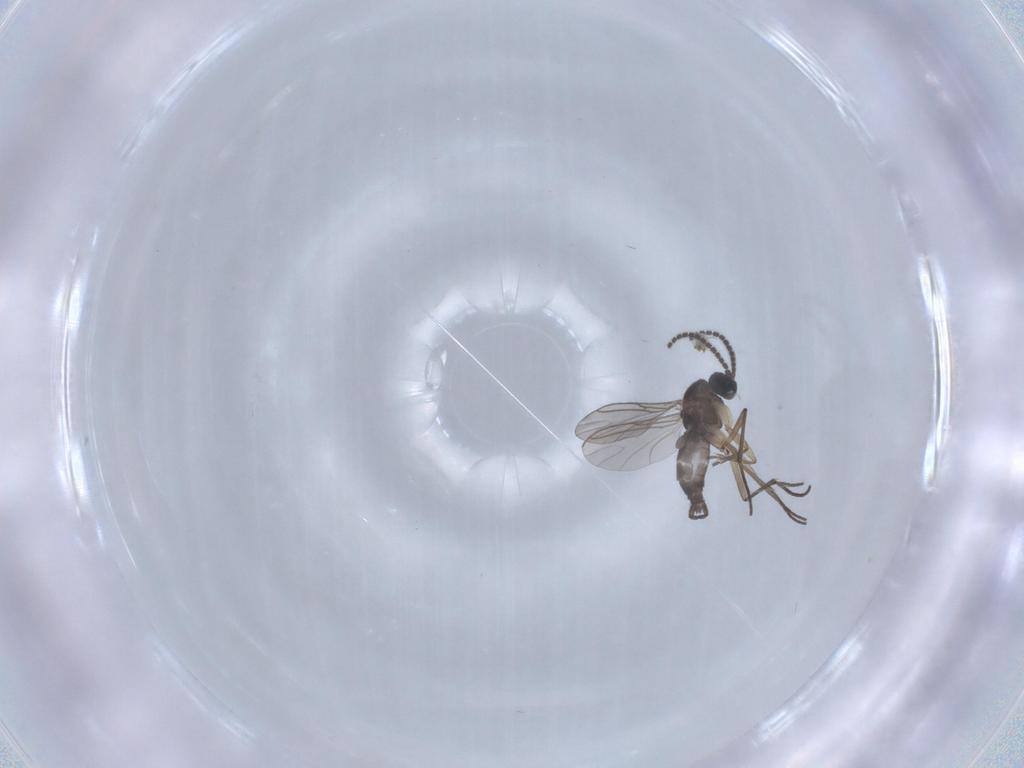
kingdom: Animalia
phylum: Arthropoda
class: Insecta
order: Diptera
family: Sciaridae
